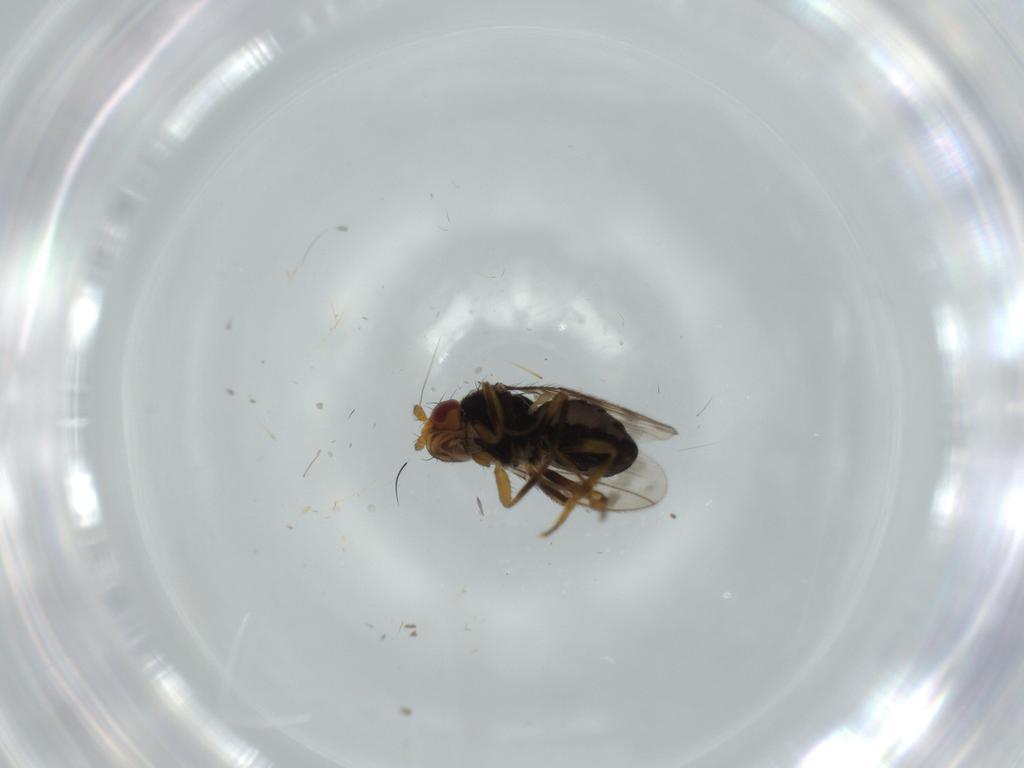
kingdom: Animalia
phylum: Arthropoda
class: Insecta
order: Diptera
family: Sphaeroceridae
